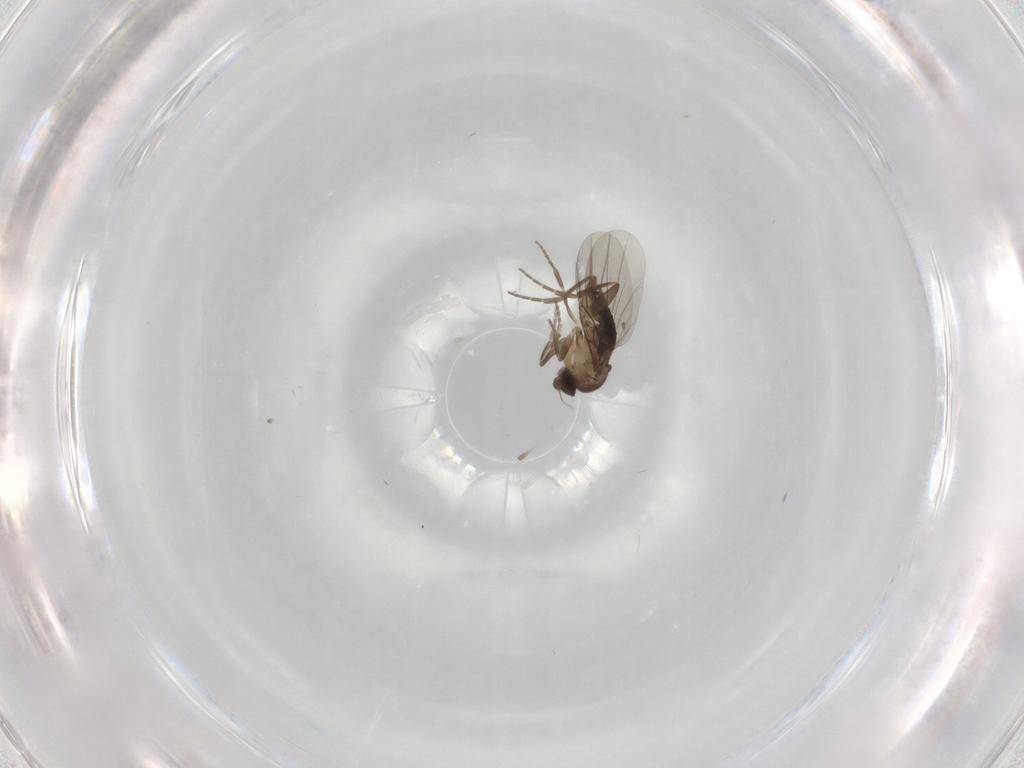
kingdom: Animalia
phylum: Arthropoda
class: Insecta
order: Diptera
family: Phoridae
